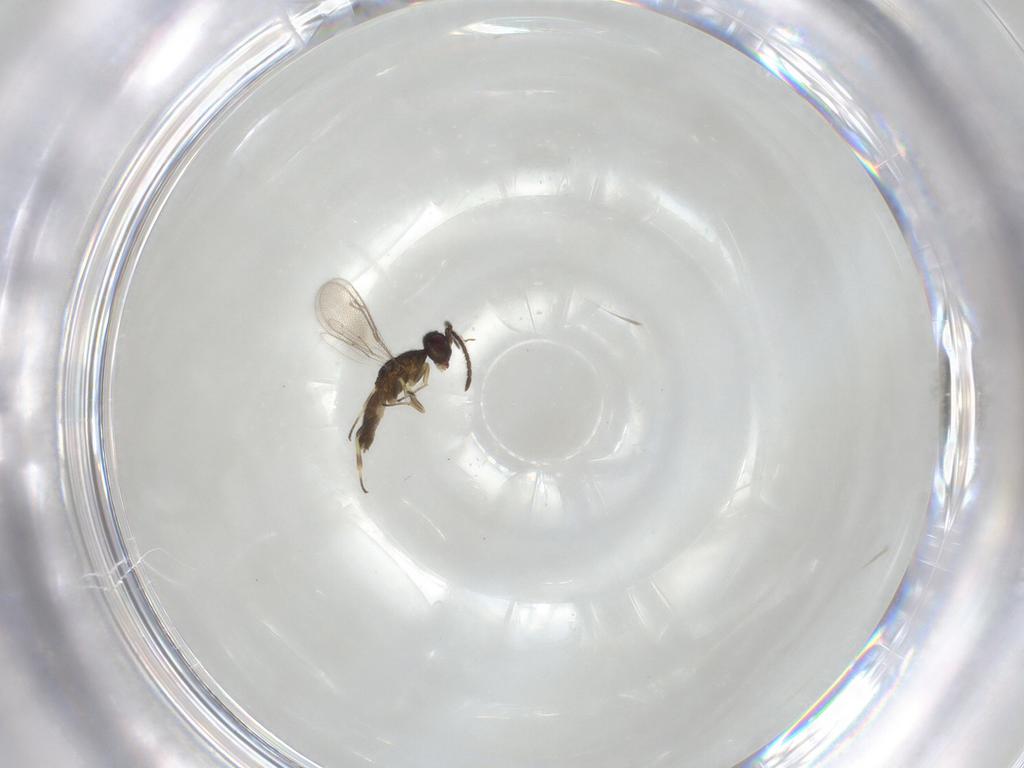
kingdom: Animalia
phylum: Arthropoda
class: Insecta
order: Hymenoptera
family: Eulophidae
